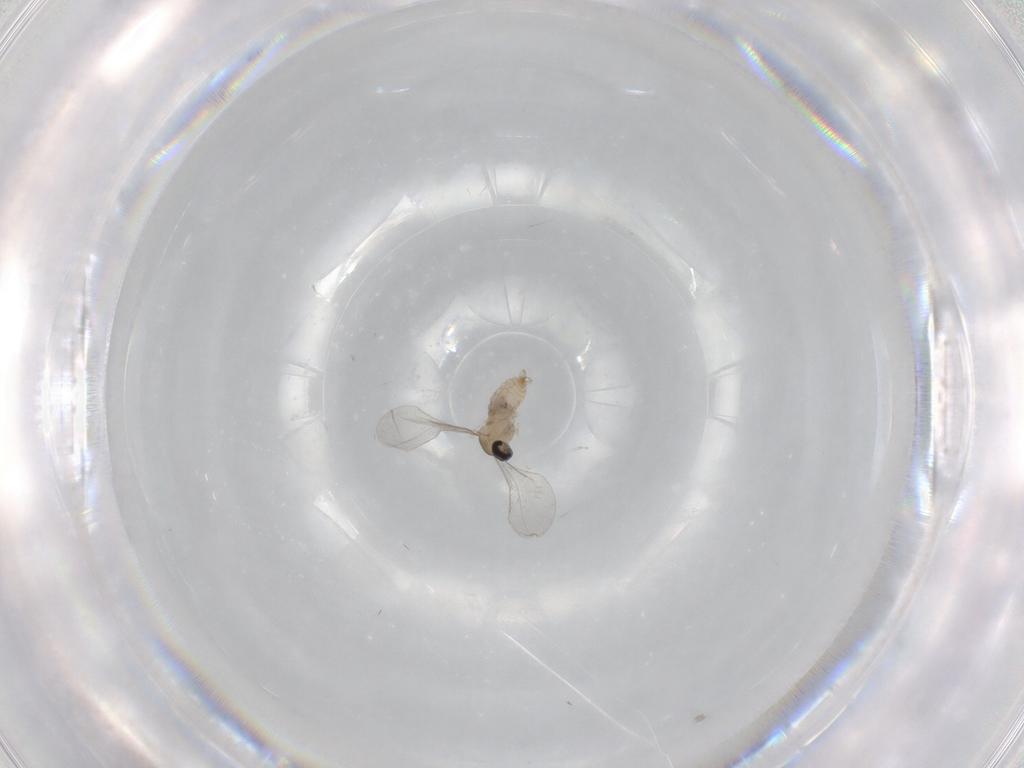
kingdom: Animalia
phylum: Arthropoda
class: Insecta
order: Diptera
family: Cecidomyiidae
